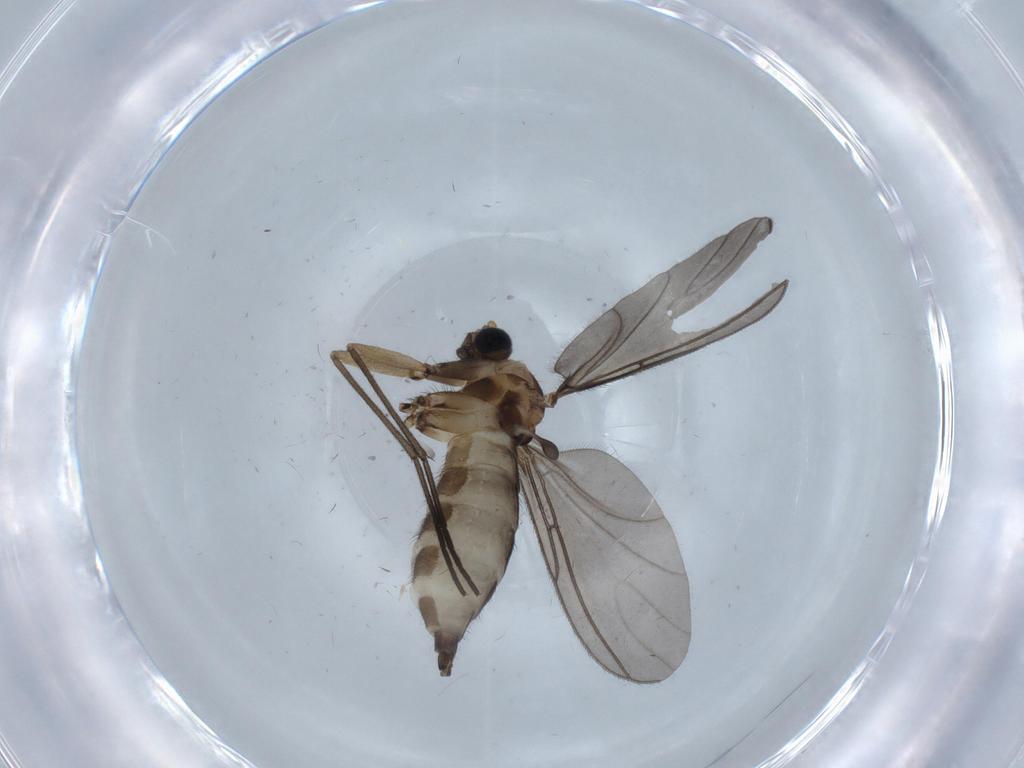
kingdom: Animalia
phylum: Arthropoda
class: Insecta
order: Diptera
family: Sciaridae
